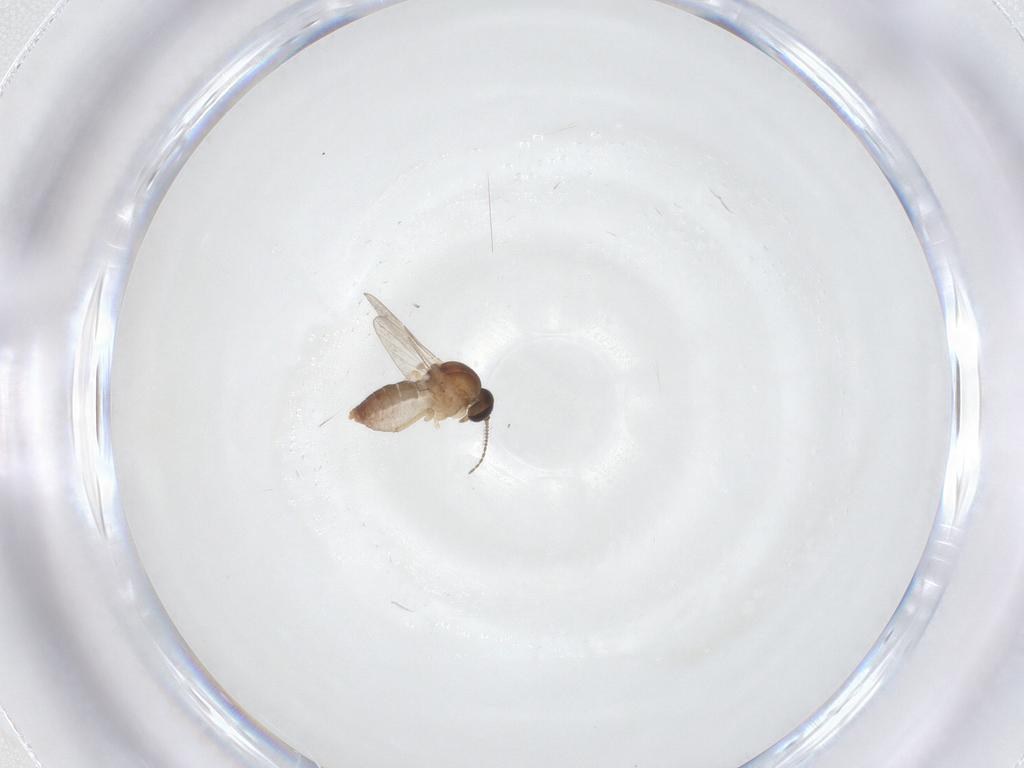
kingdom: Animalia
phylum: Arthropoda
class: Insecta
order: Diptera
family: Ceratopogonidae
